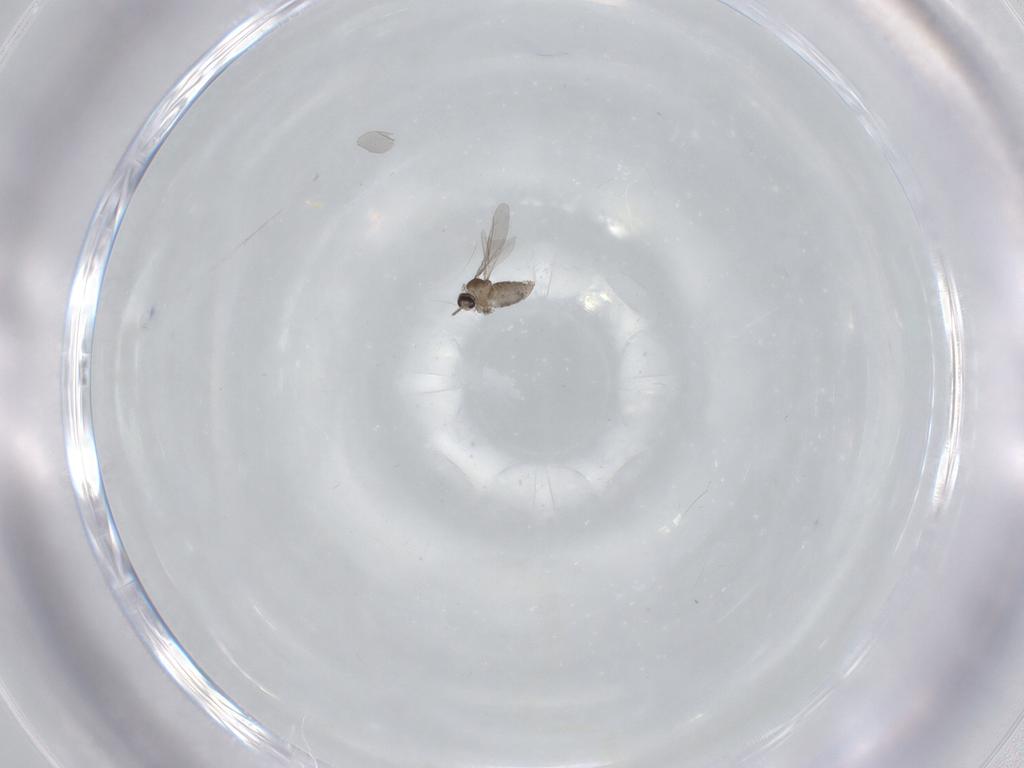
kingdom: Animalia
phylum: Arthropoda
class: Insecta
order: Diptera
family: Cecidomyiidae
